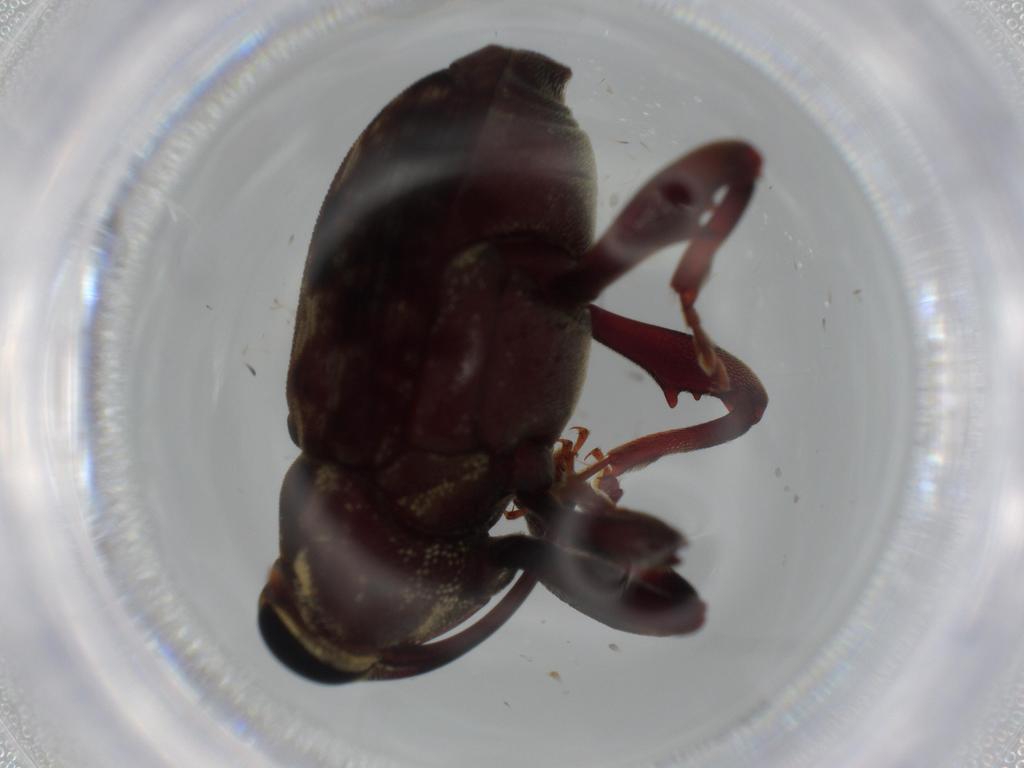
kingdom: Animalia
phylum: Arthropoda
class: Insecta
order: Coleoptera
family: Curculionidae
